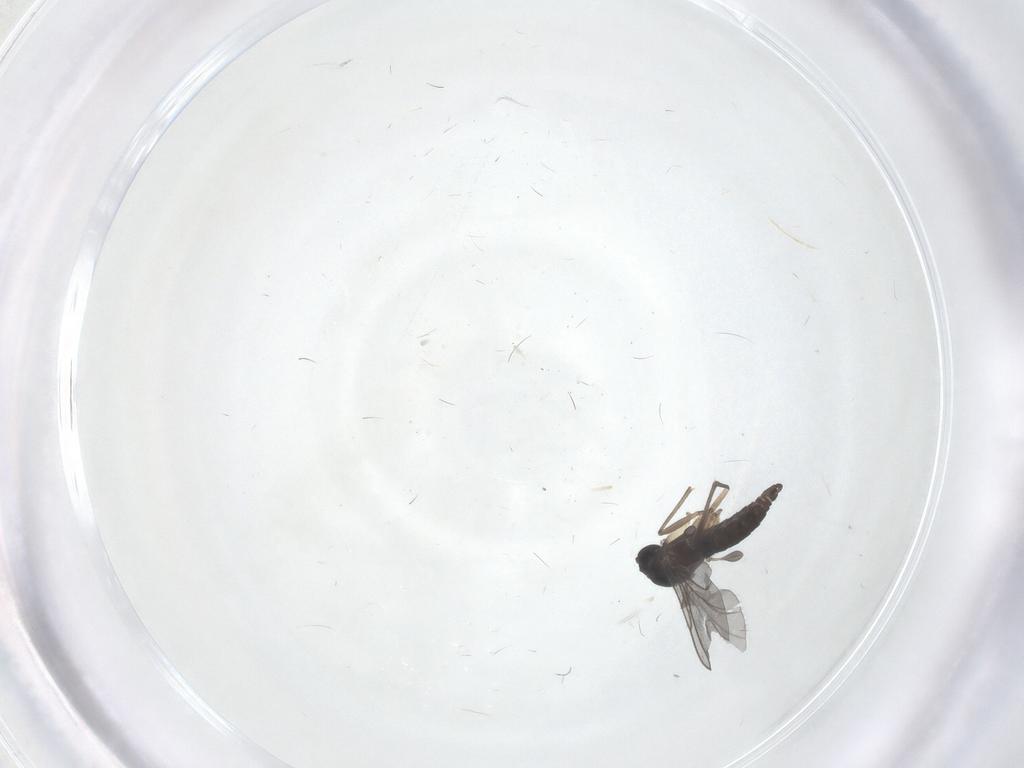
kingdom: Animalia
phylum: Arthropoda
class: Insecta
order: Diptera
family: Sciaridae
